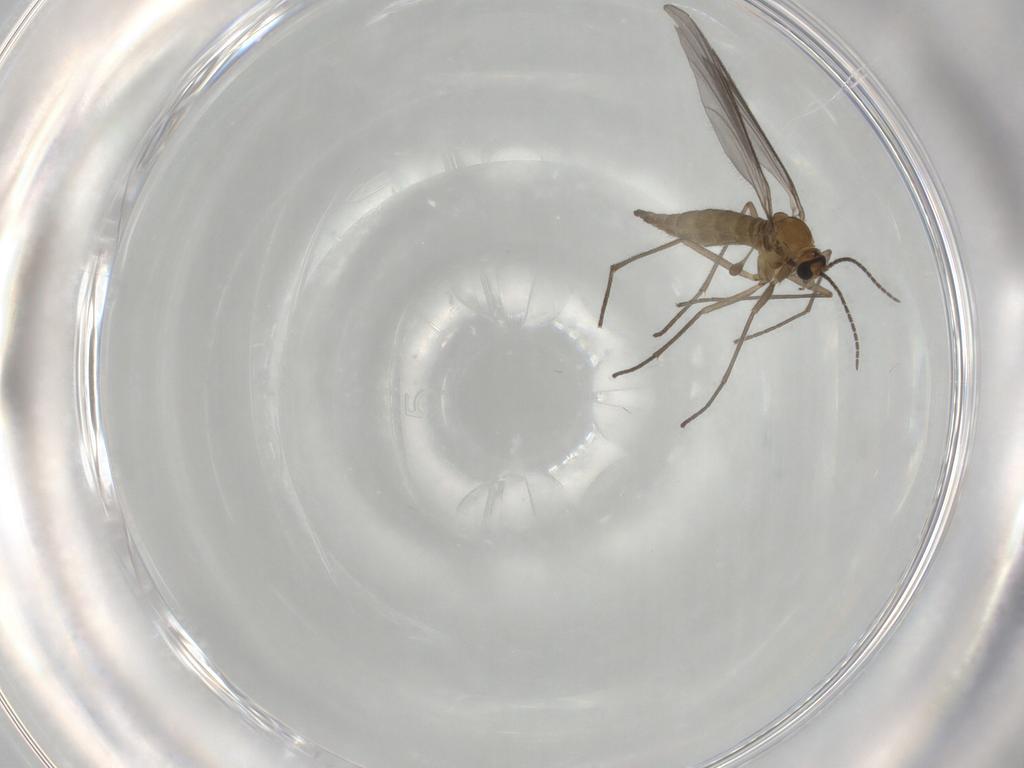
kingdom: Animalia
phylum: Arthropoda
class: Insecta
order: Diptera
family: Sciaridae
